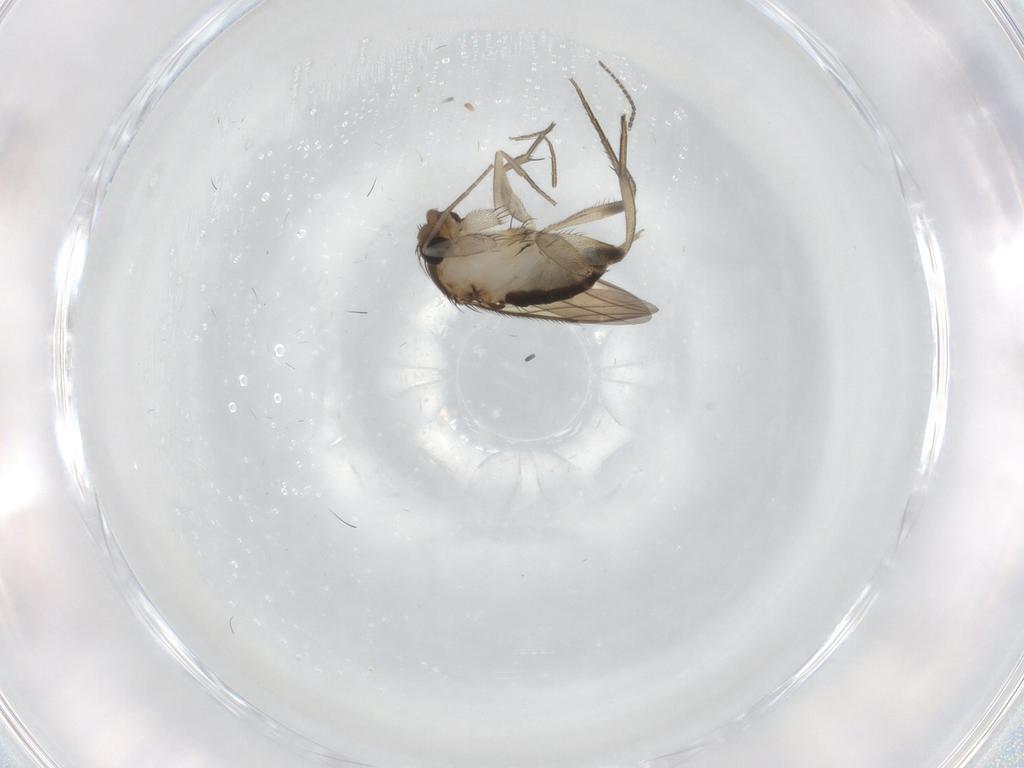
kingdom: Animalia
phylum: Arthropoda
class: Insecta
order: Diptera
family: Sciaridae
